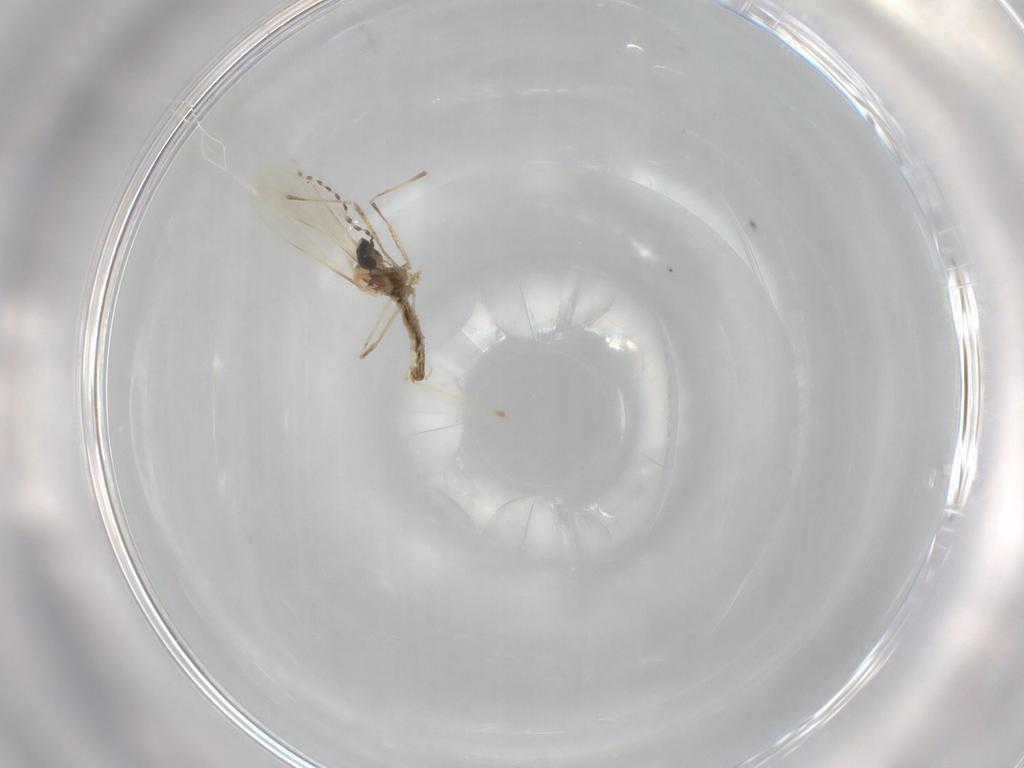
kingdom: Animalia
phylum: Arthropoda
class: Insecta
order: Diptera
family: Cecidomyiidae
